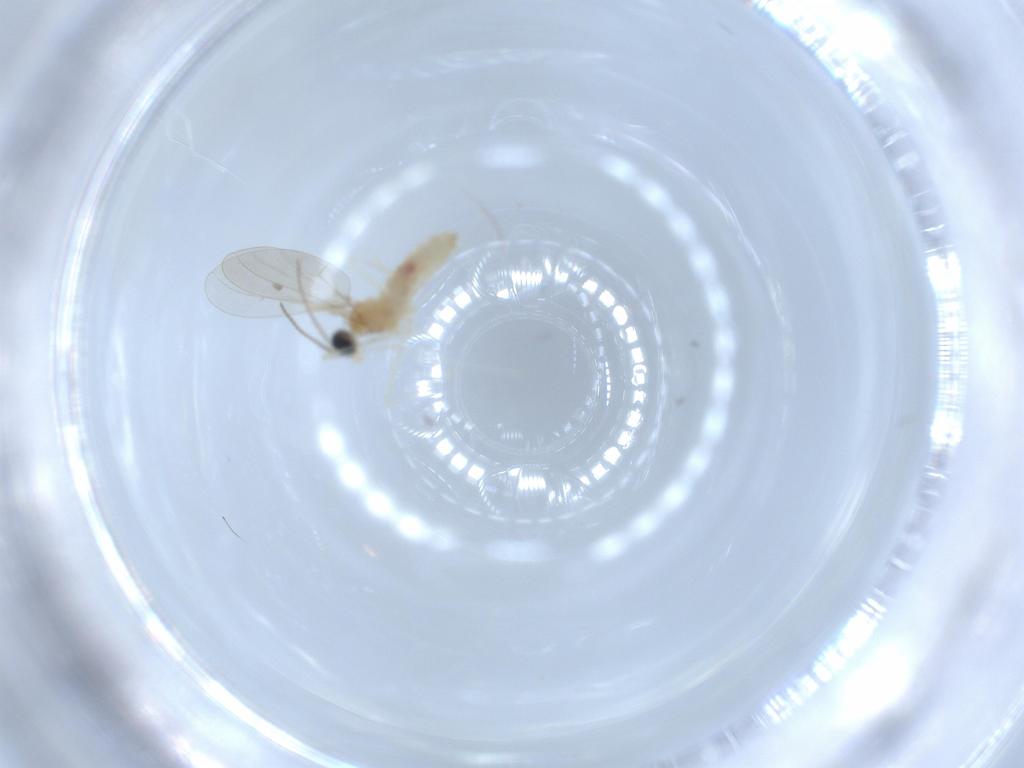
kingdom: Animalia
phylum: Arthropoda
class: Insecta
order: Diptera
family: Cecidomyiidae
